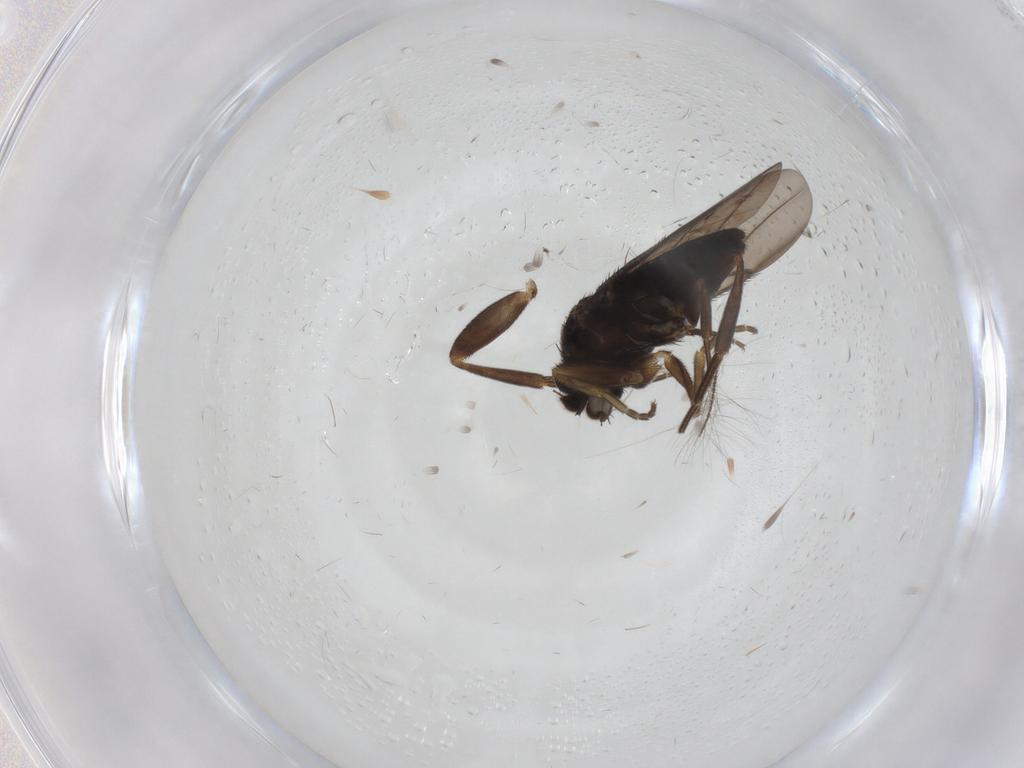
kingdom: Animalia
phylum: Arthropoda
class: Insecta
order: Diptera
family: Phoridae
